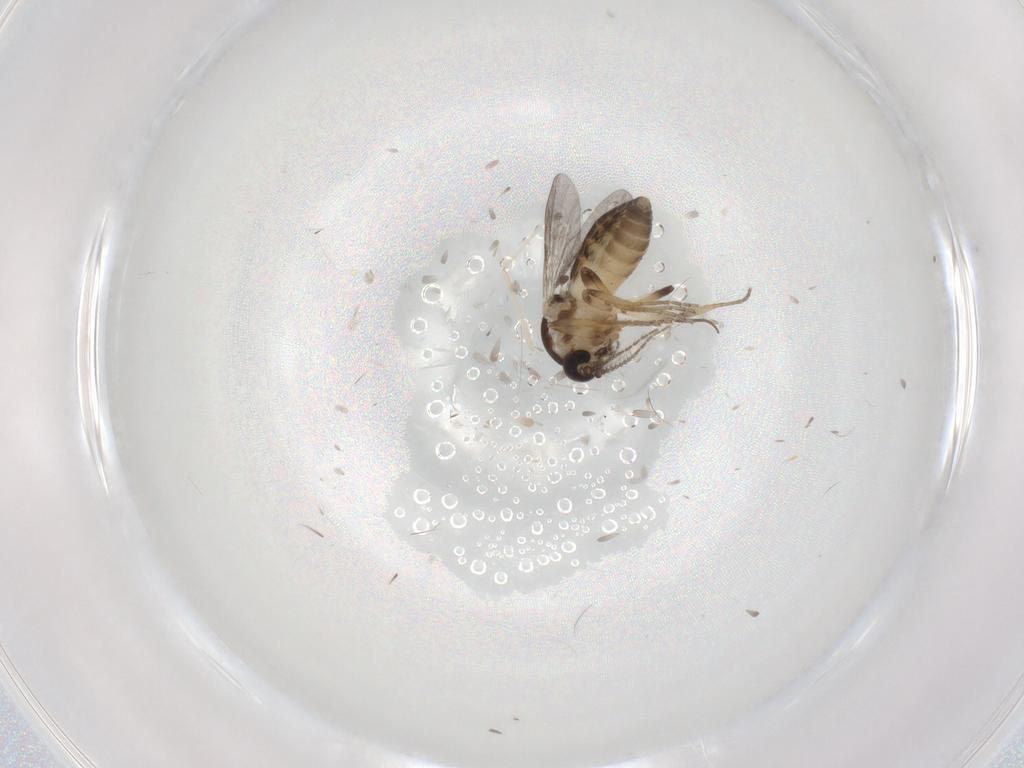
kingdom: Animalia
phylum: Arthropoda
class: Insecta
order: Diptera
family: Ceratopogonidae
